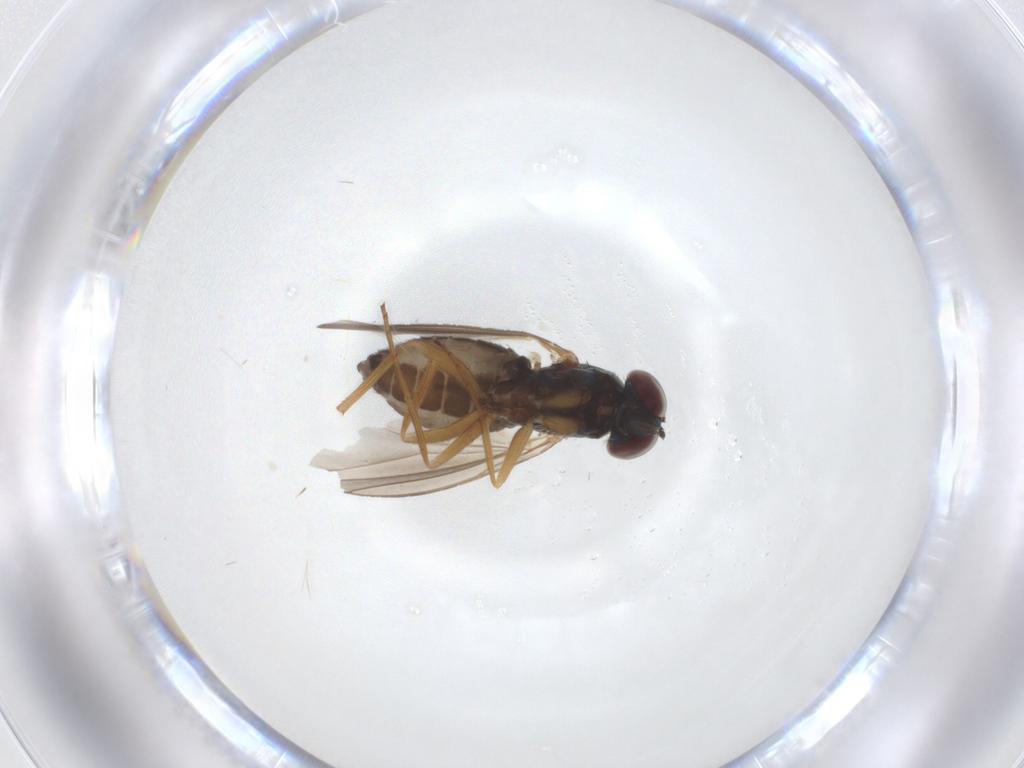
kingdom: Animalia
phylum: Arthropoda
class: Insecta
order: Diptera
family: Dolichopodidae
